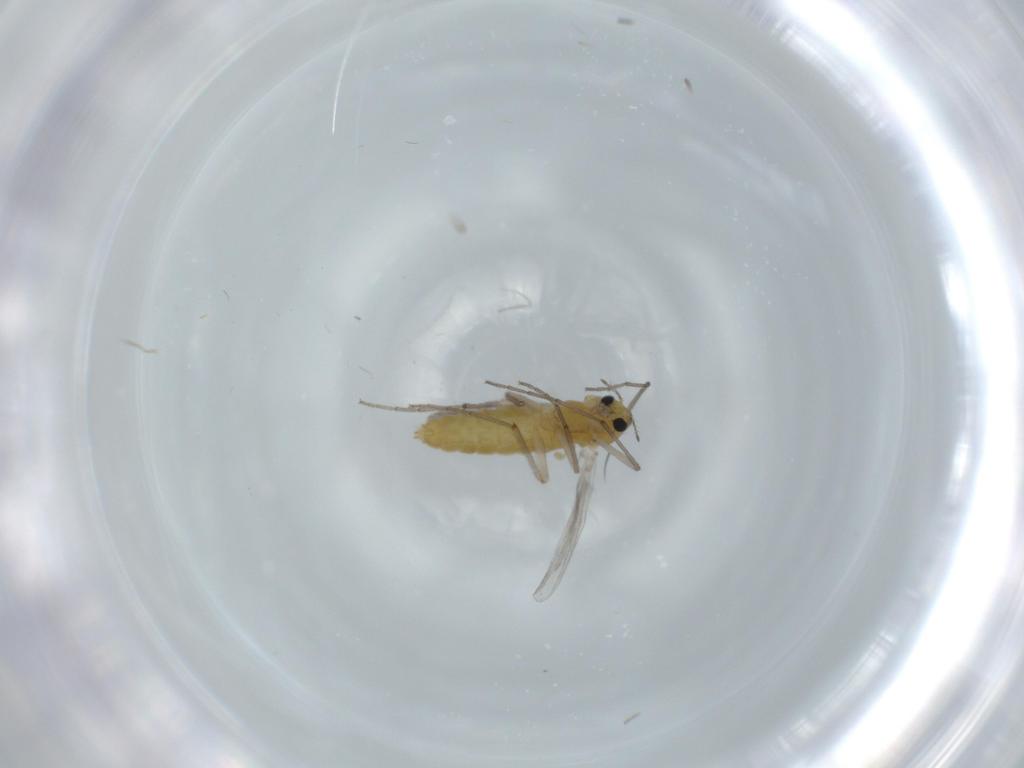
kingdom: Animalia
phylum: Arthropoda
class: Insecta
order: Diptera
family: Chironomidae
